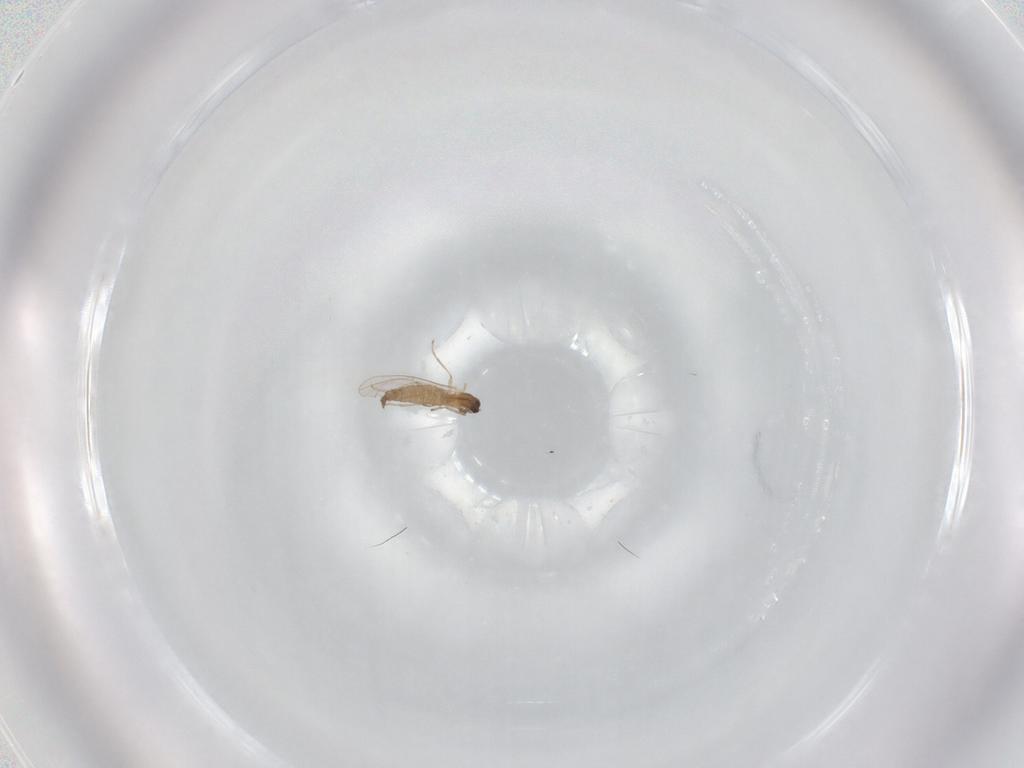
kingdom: Animalia
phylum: Arthropoda
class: Insecta
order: Diptera
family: Cecidomyiidae
